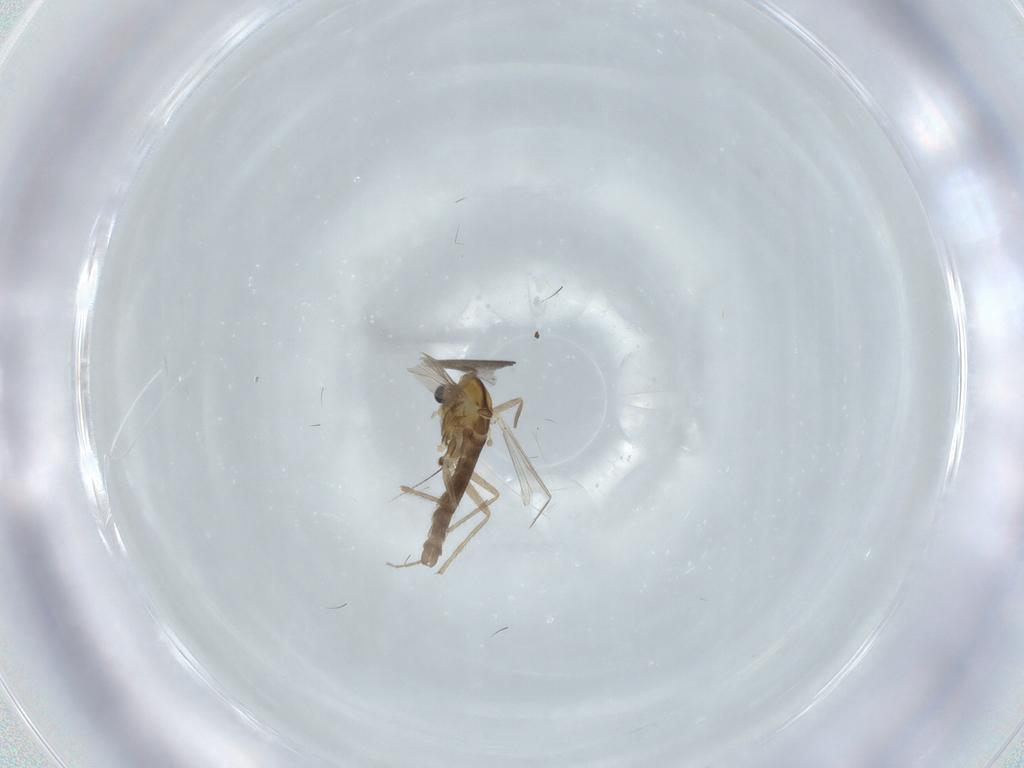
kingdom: Animalia
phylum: Arthropoda
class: Insecta
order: Diptera
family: Chironomidae
